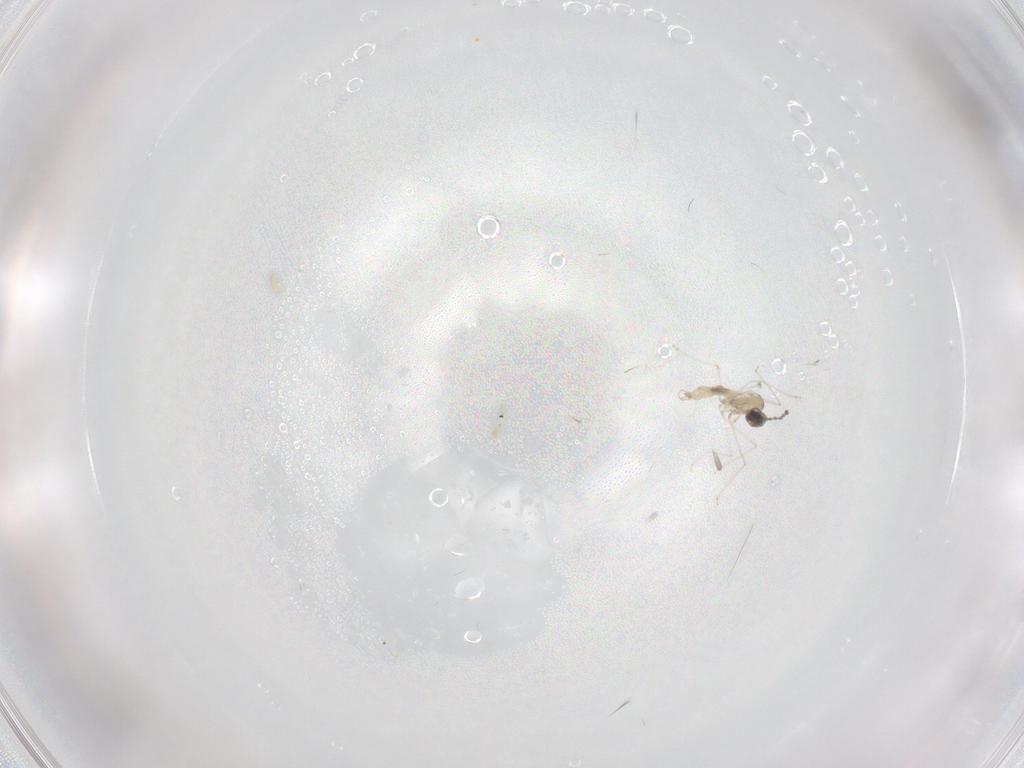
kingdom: Animalia
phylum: Arthropoda
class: Insecta
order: Diptera
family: Cecidomyiidae
